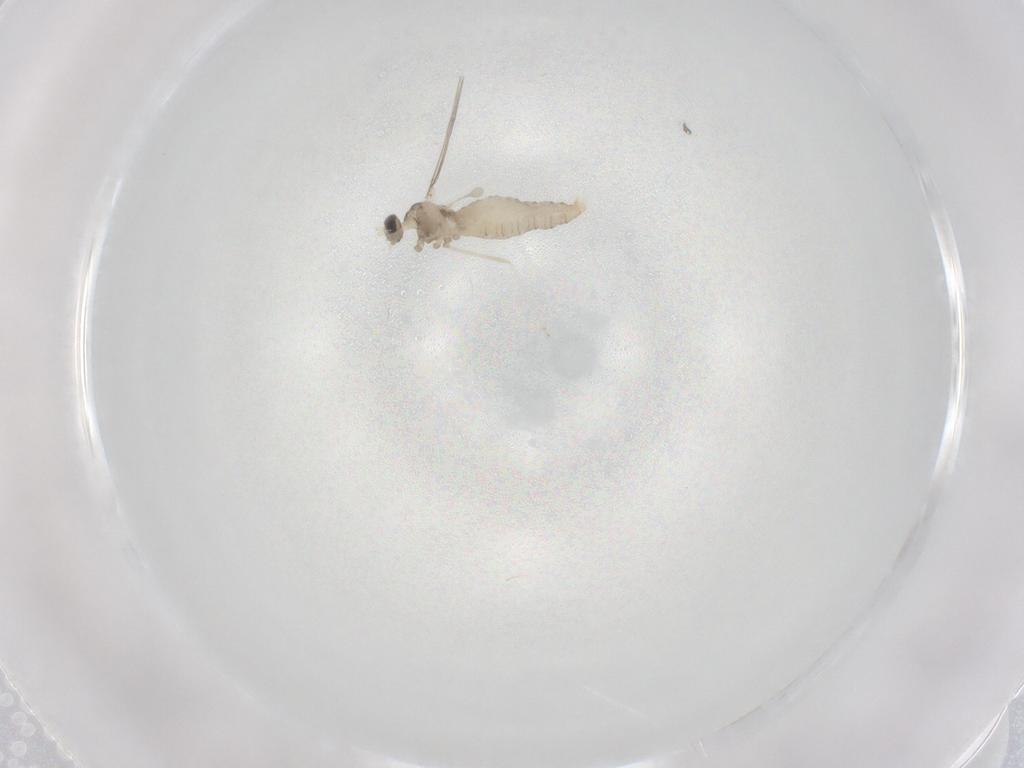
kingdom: Animalia
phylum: Arthropoda
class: Insecta
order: Diptera
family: Cecidomyiidae
